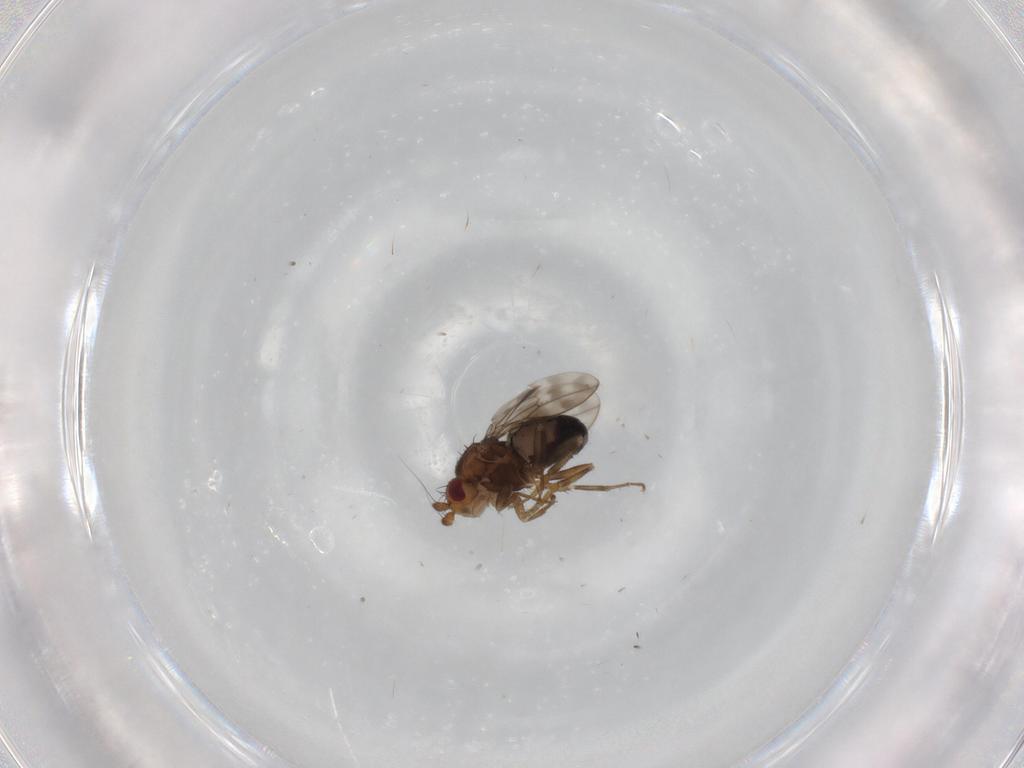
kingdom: Animalia
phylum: Arthropoda
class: Insecta
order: Diptera
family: Sphaeroceridae
